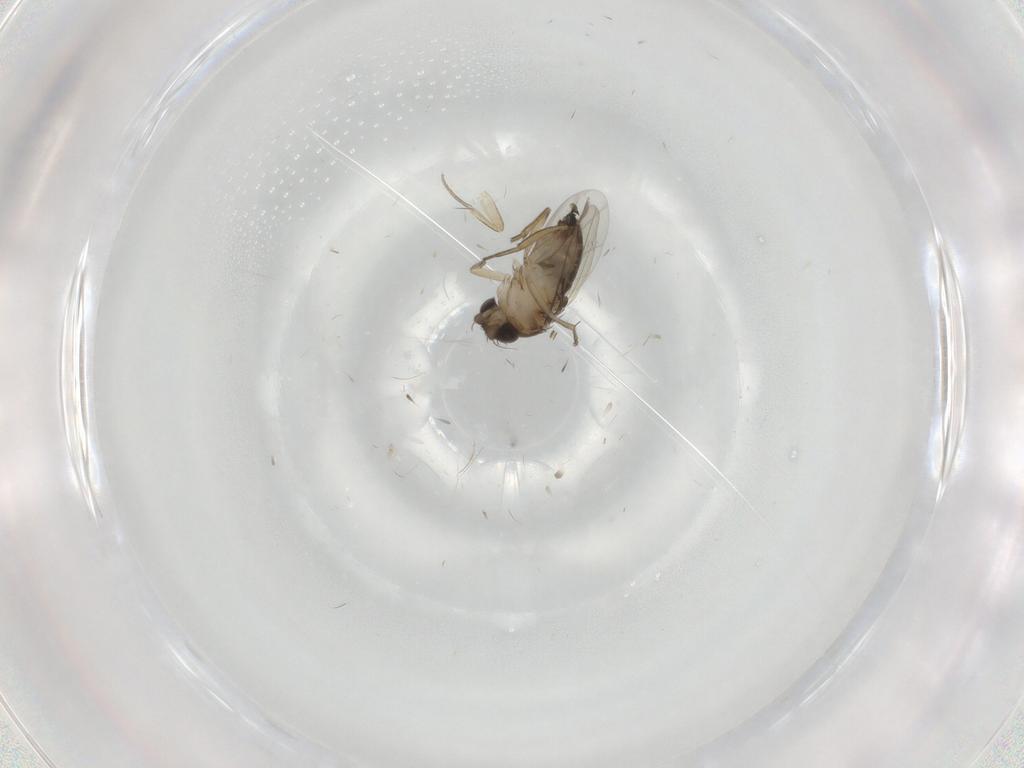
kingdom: Animalia
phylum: Arthropoda
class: Insecta
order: Diptera
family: Phoridae
